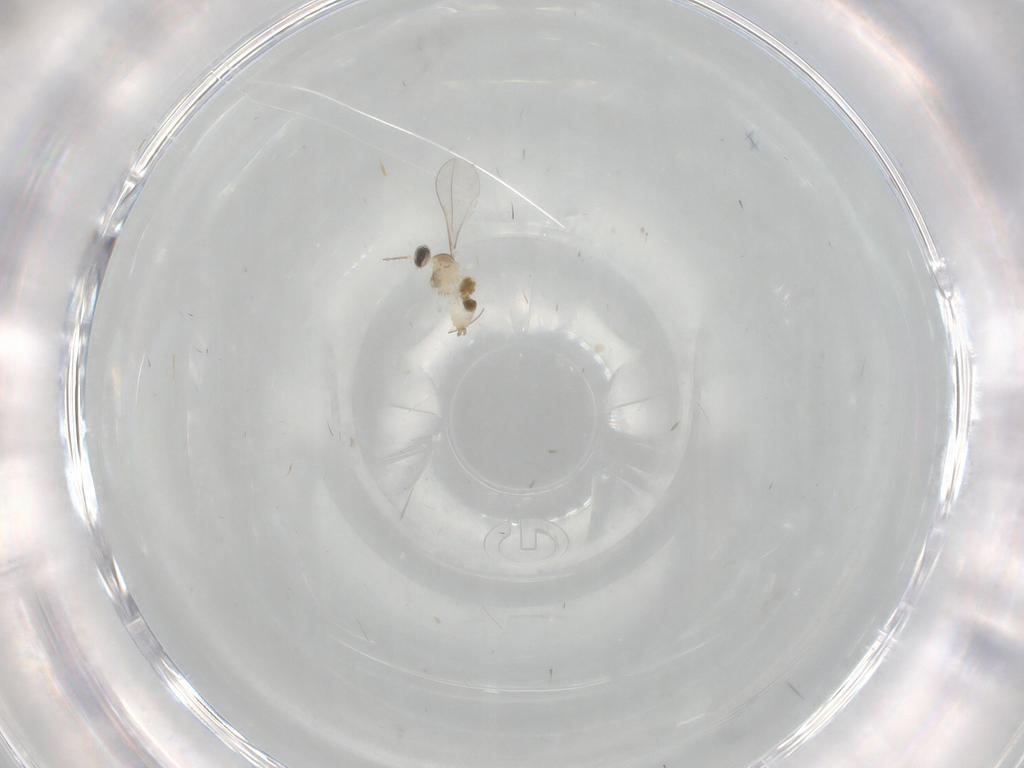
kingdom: Animalia
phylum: Arthropoda
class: Insecta
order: Diptera
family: Cecidomyiidae
